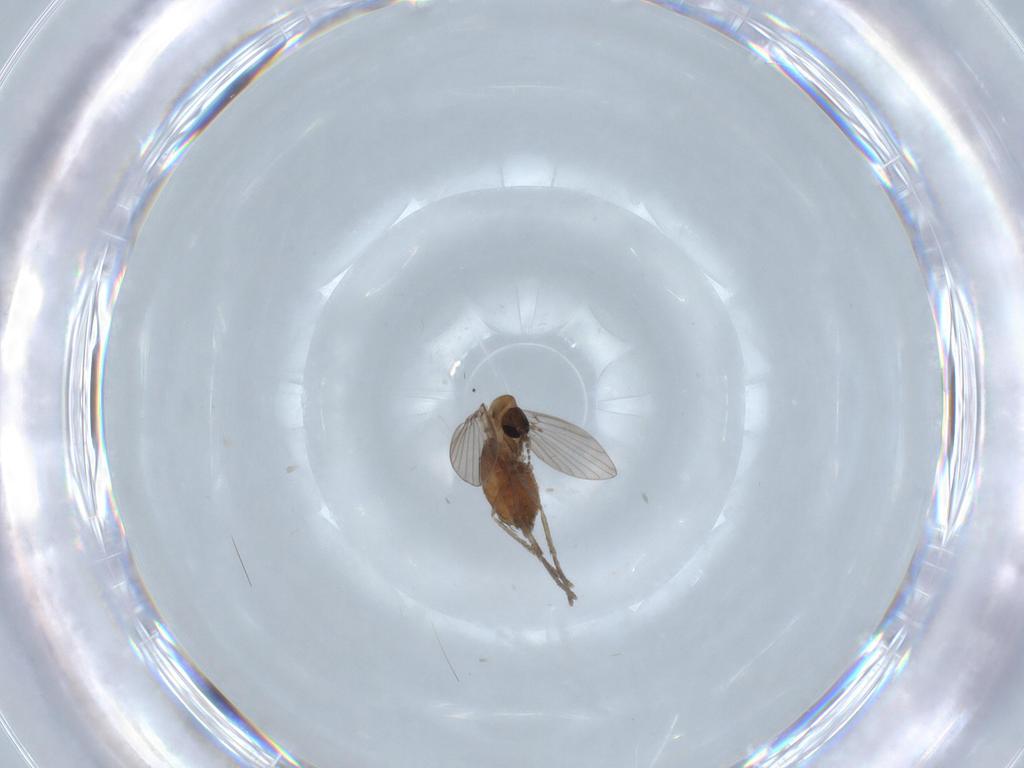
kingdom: Animalia
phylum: Arthropoda
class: Insecta
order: Diptera
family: Psychodidae
